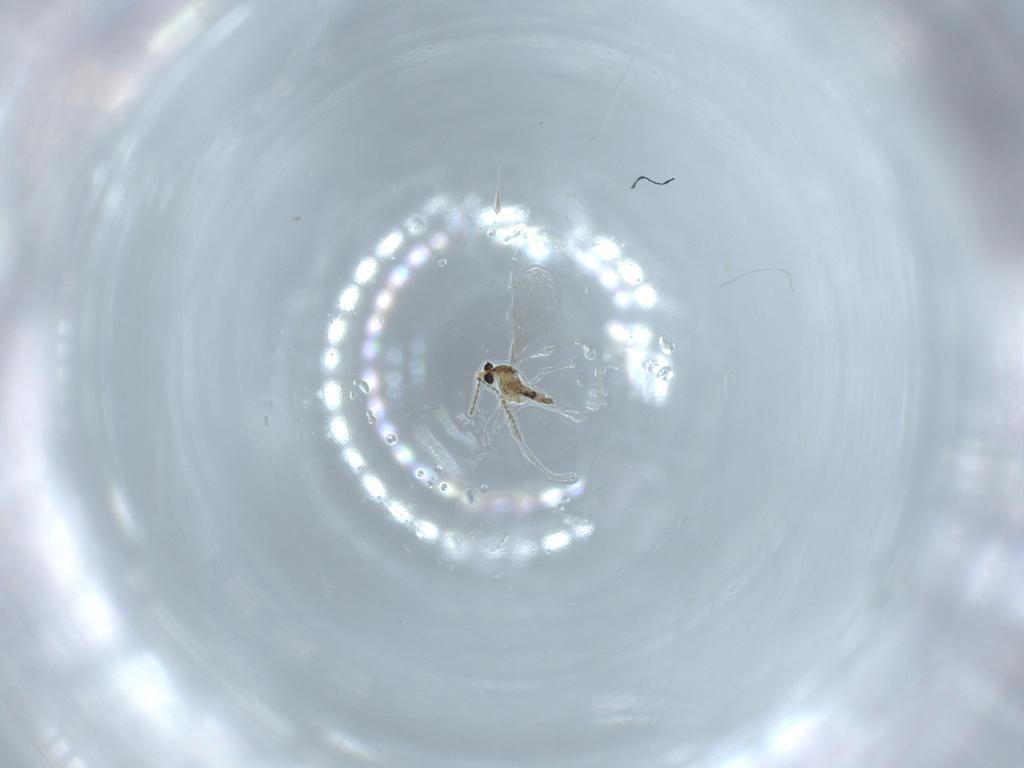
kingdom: Animalia
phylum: Arthropoda
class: Insecta
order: Diptera
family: Cecidomyiidae
